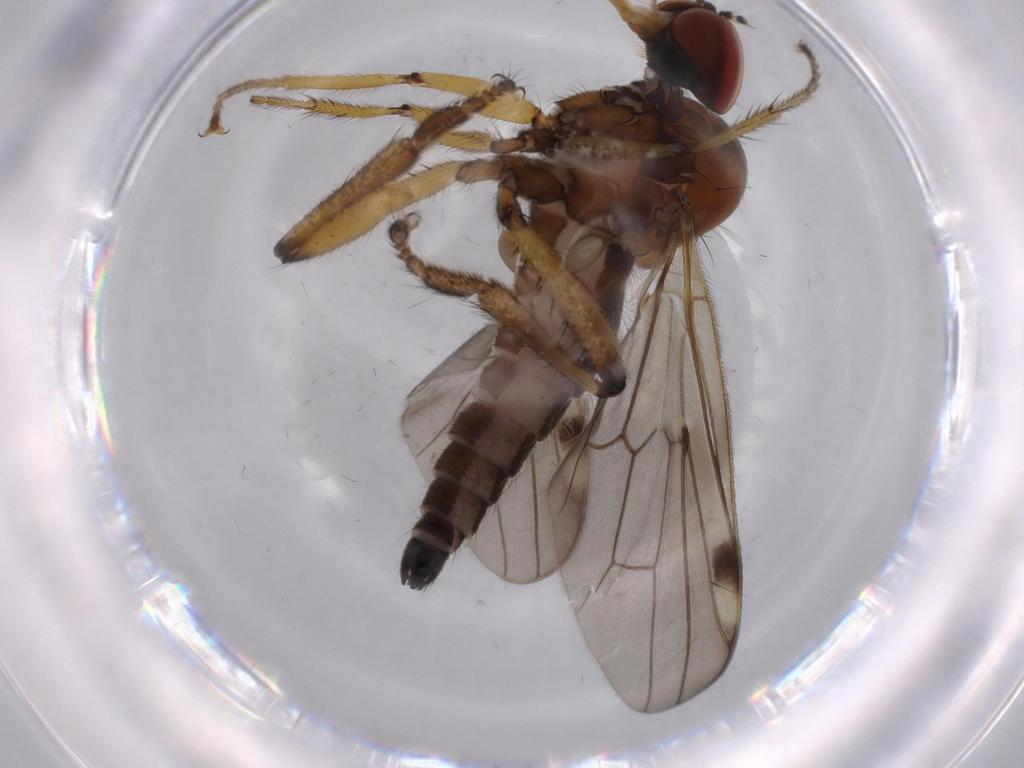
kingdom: Animalia
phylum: Arthropoda
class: Insecta
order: Diptera
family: Hybotidae
